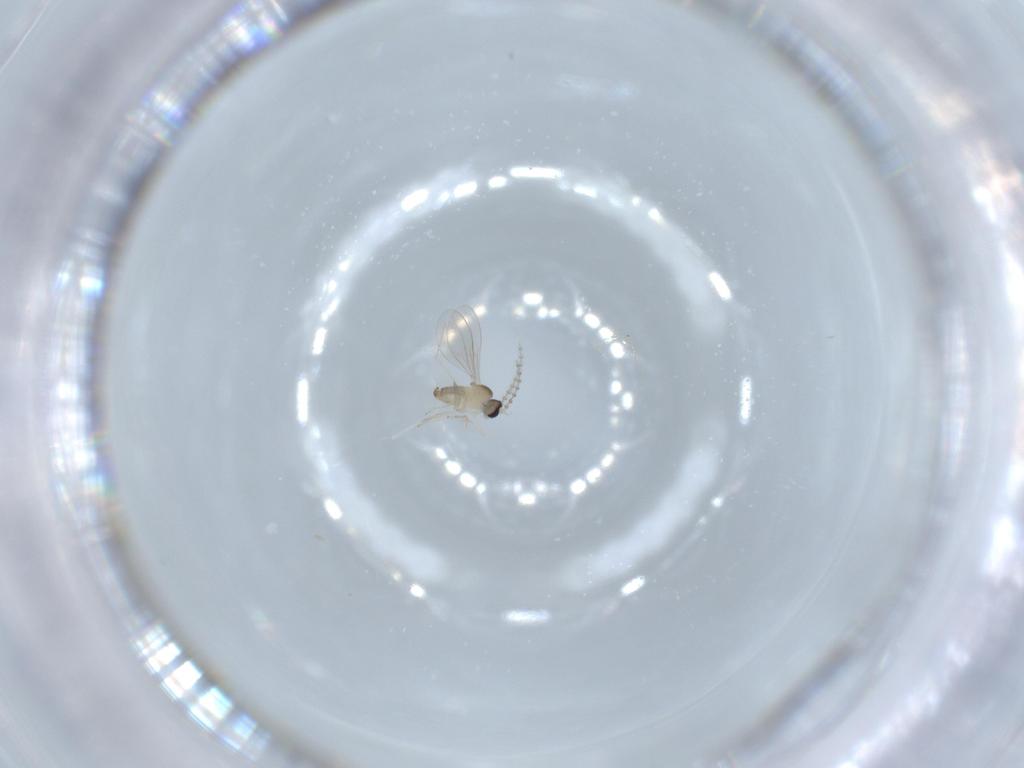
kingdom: Animalia
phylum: Arthropoda
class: Insecta
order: Diptera
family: Cecidomyiidae
